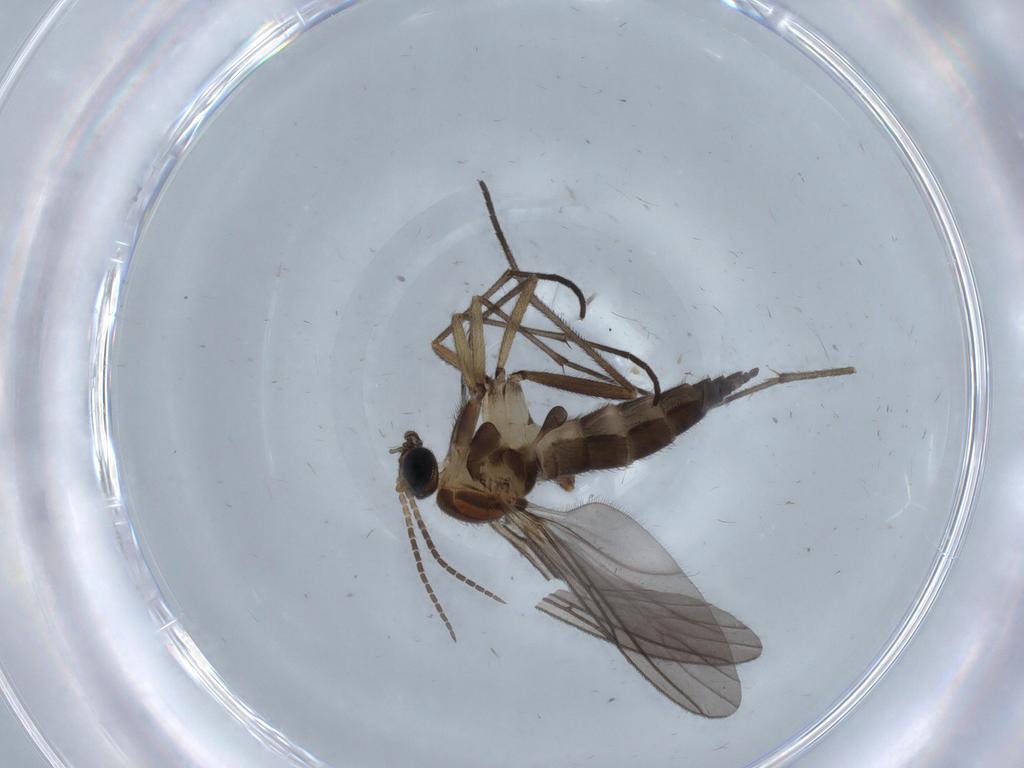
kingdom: Animalia
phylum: Arthropoda
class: Insecta
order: Diptera
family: Sciaridae
